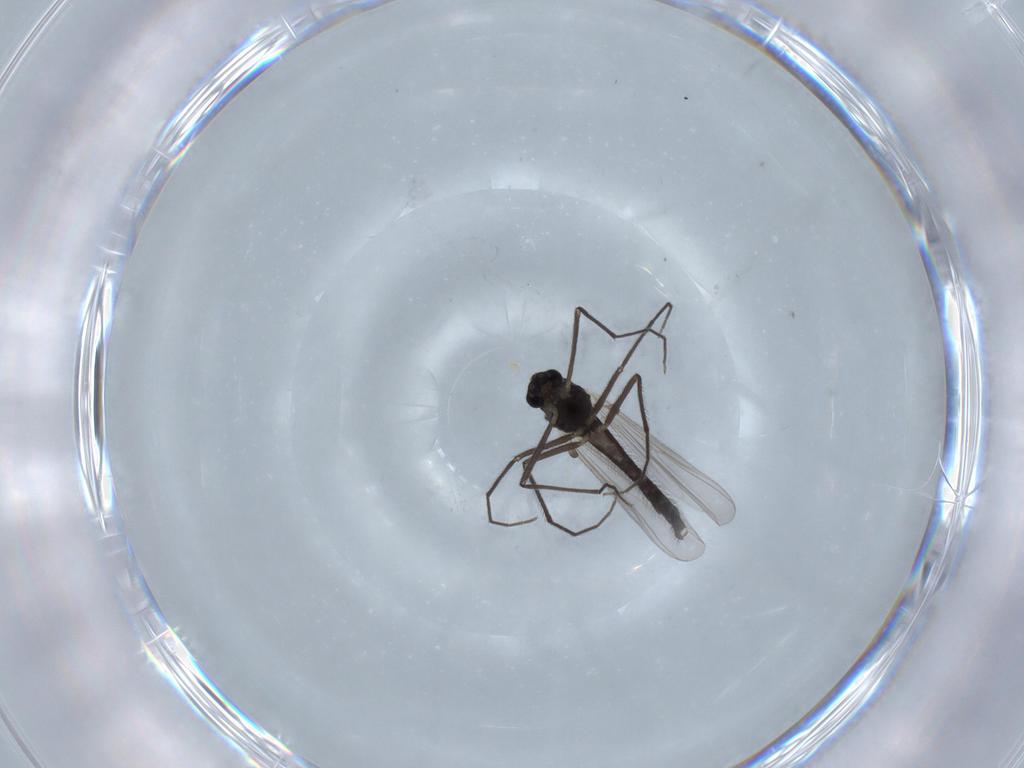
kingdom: Animalia
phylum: Arthropoda
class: Insecta
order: Diptera
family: Chironomidae
